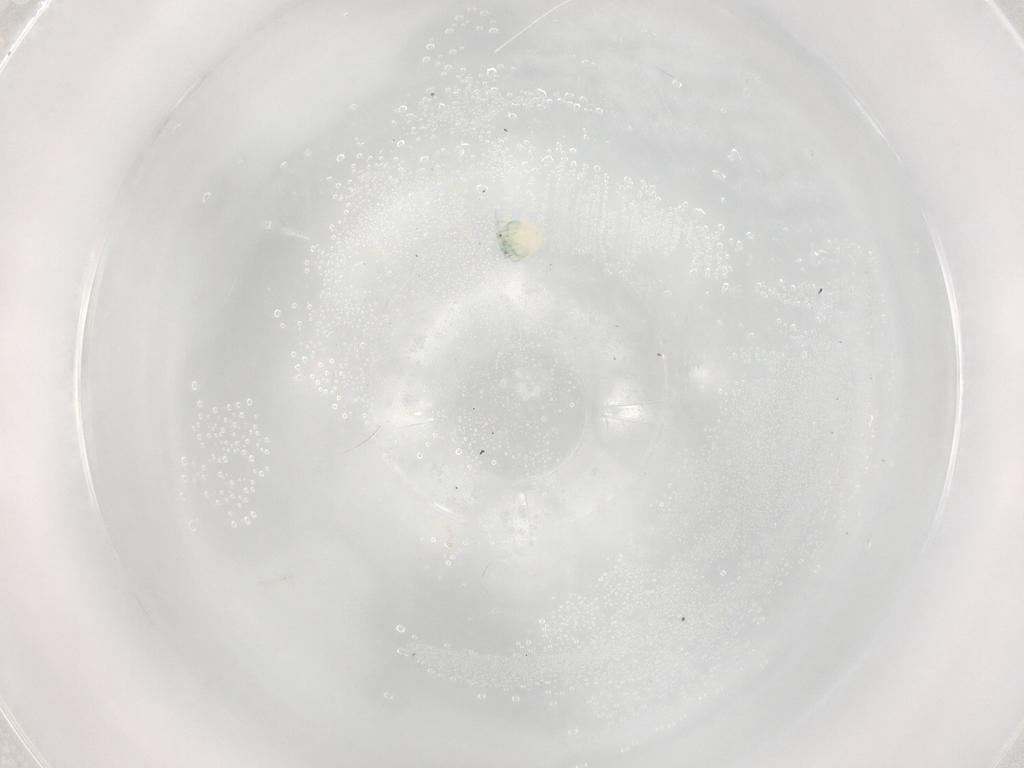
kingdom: Animalia
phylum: Arthropoda
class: Arachnida
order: Trombidiformes
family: Arrenuridae
